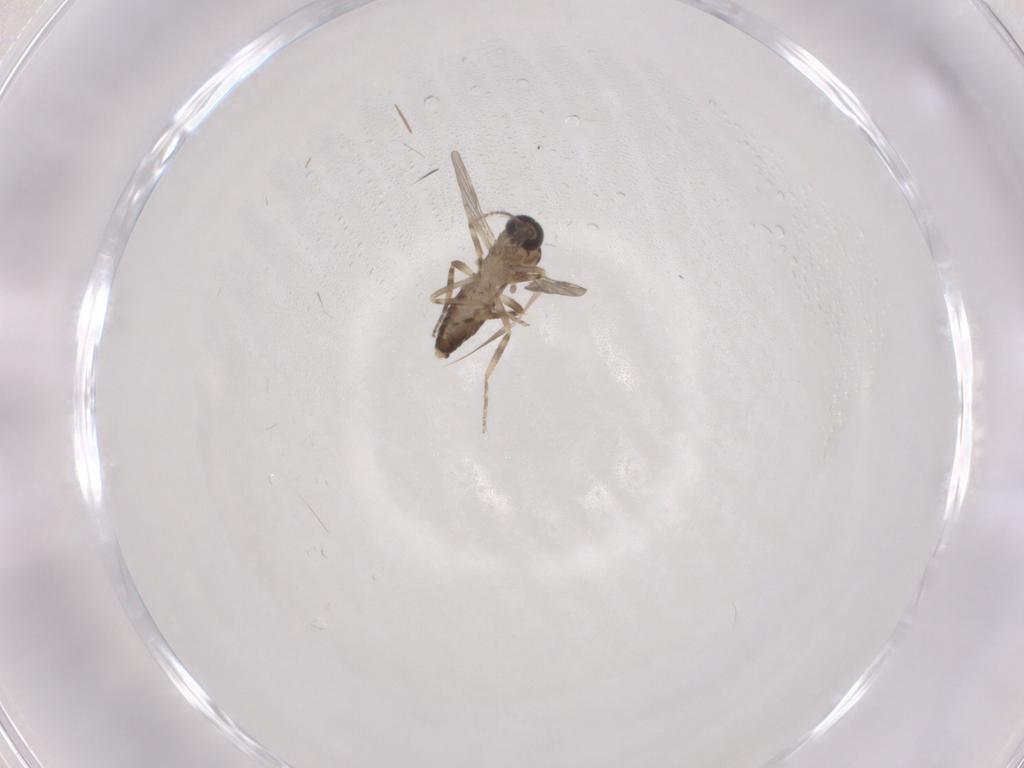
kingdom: Animalia
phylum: Arthropoda
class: Insecta
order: Diptera
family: Ceratopogonidae
